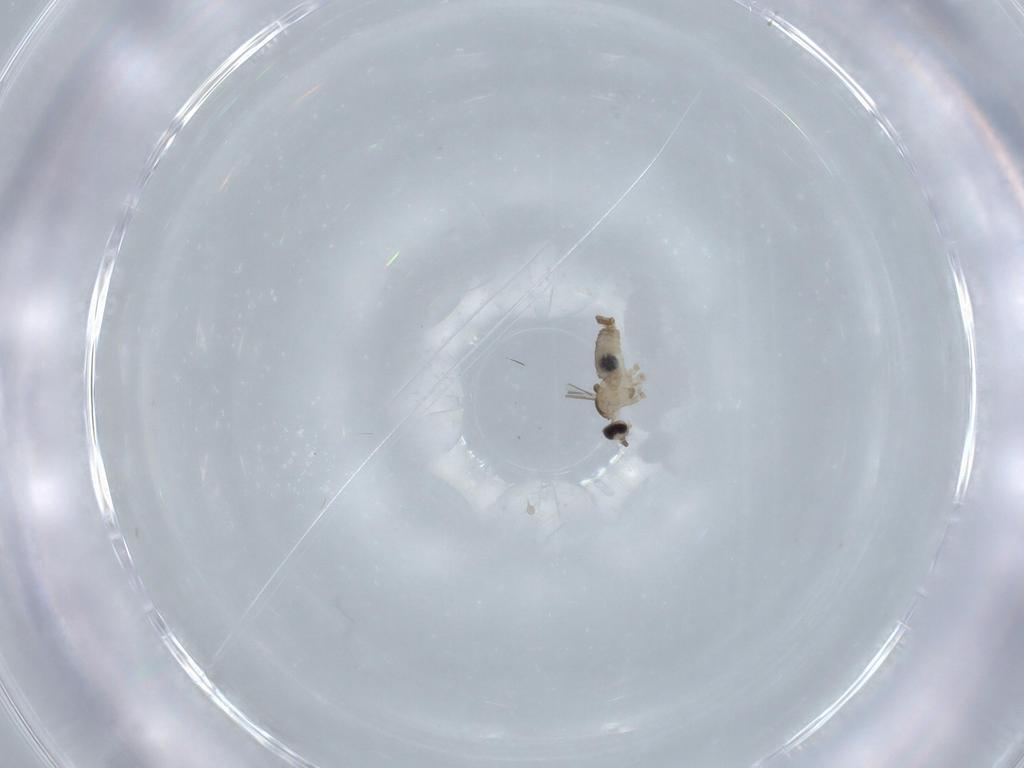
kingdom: Animalia
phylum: Arthropoda
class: Insecta
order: Diptera
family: Cecidomyiidae
